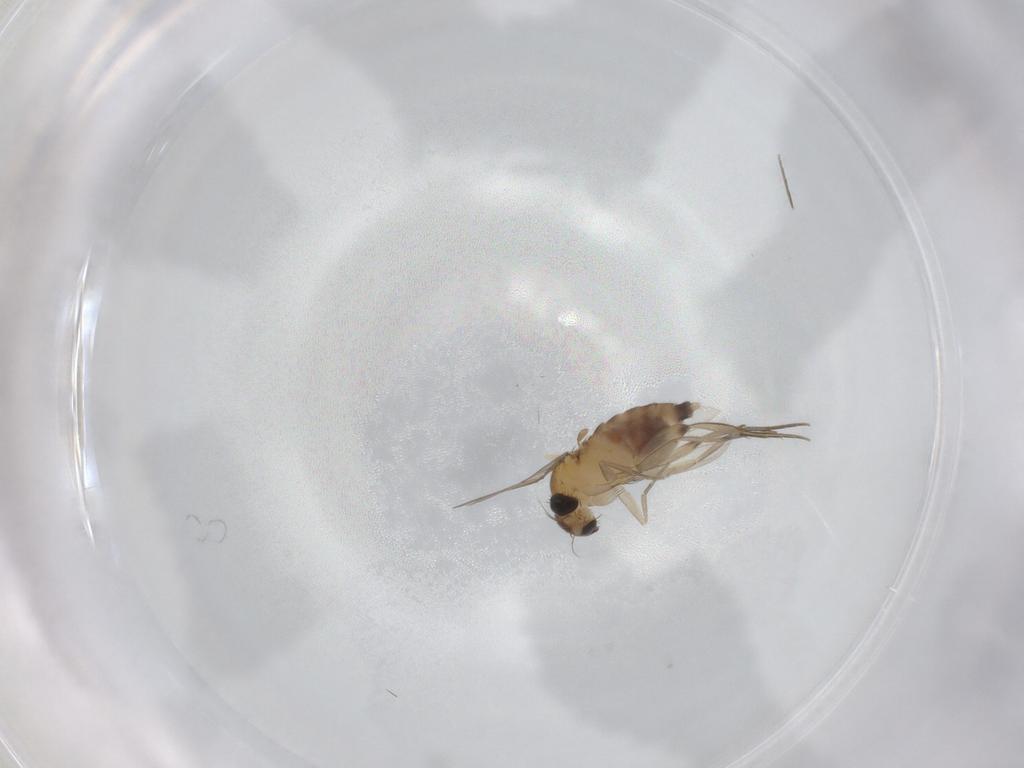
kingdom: Animalia
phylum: Arthropoda
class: Insecta
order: Diptera
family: Phoridae
